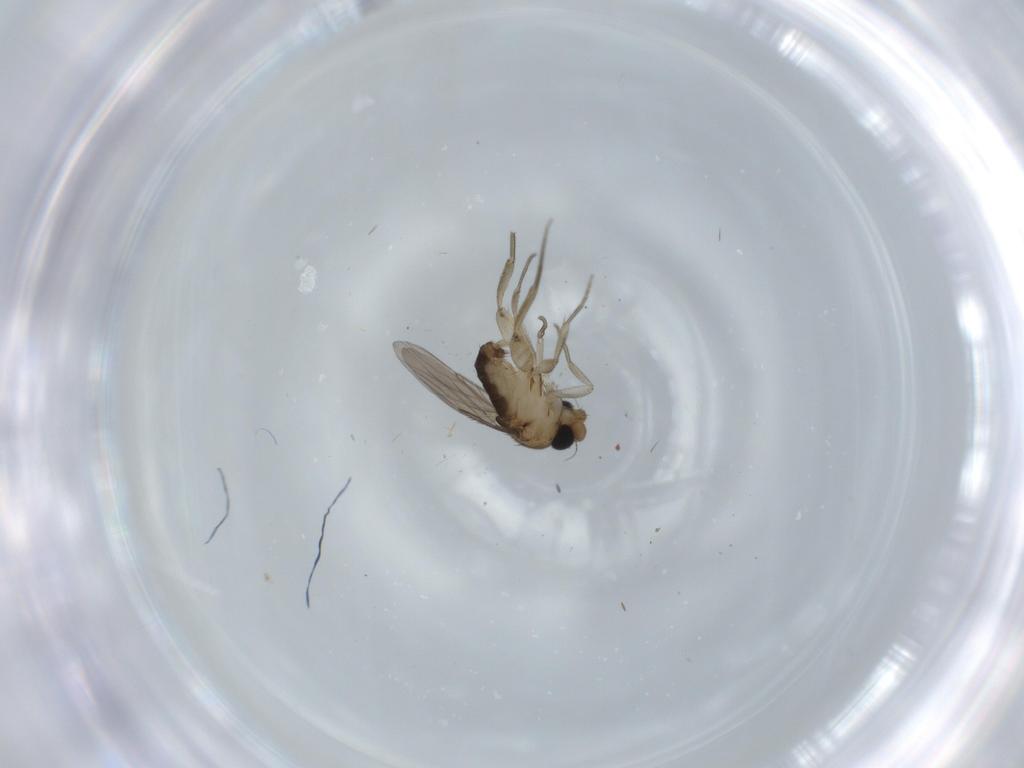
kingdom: Animalia
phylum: Arthropoda
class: Insecta
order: Diptera
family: Phoridae
